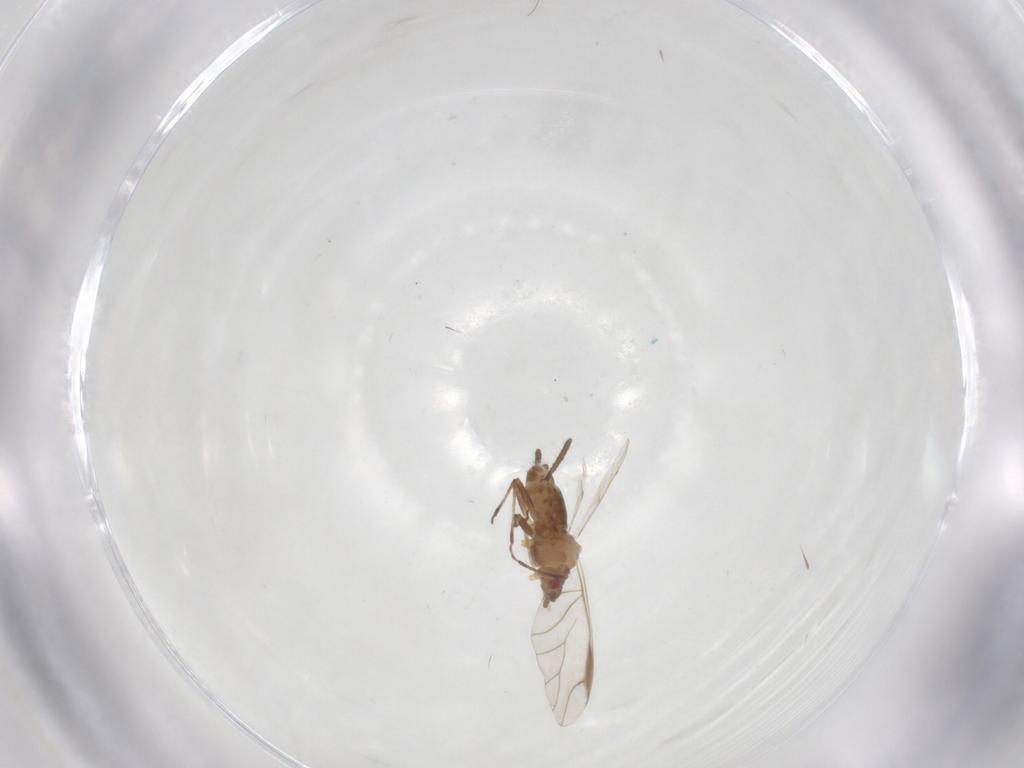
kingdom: Animalia
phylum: Arthropoda
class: Insecta
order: Hemiptera
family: Aphididae
